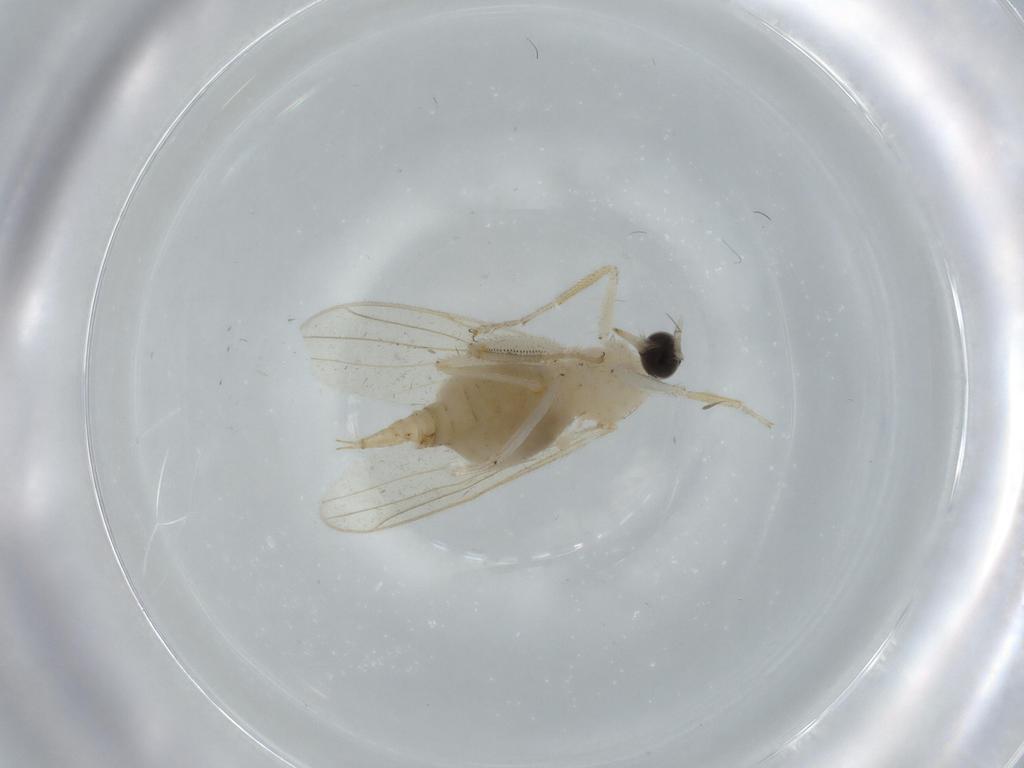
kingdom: Animalia
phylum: Arthropoda
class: Insecta
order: Diptera
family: Hybotidae
